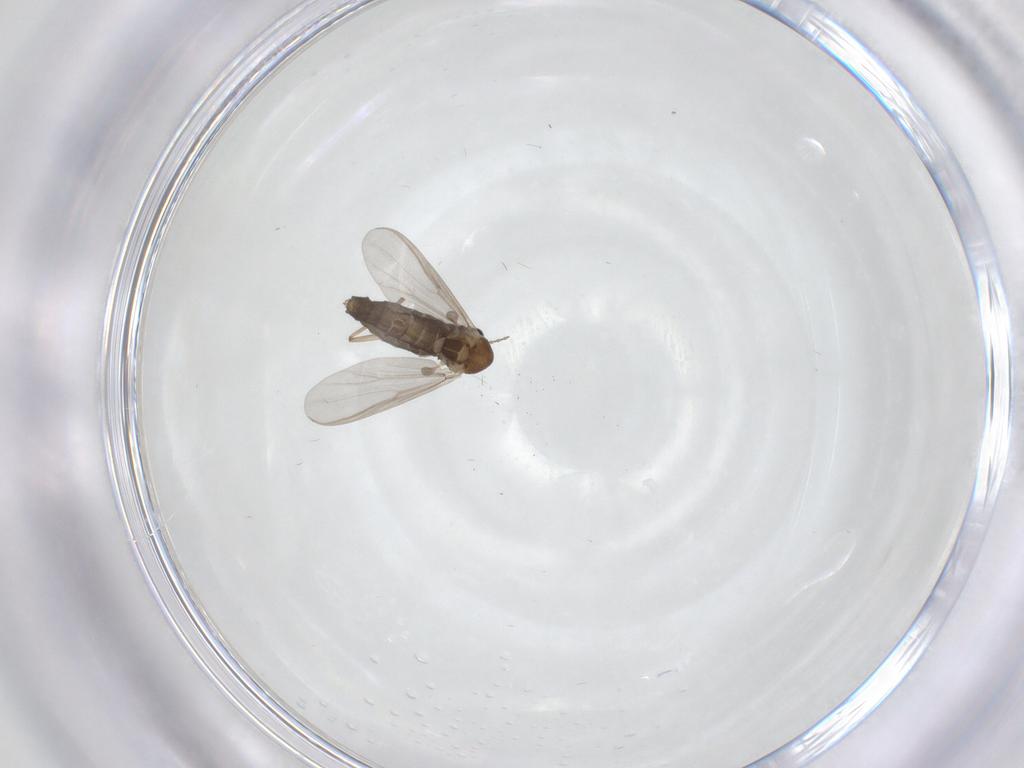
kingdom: Animalia
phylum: Arthropoda
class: Insecta
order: Diptera
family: Chironomidae
